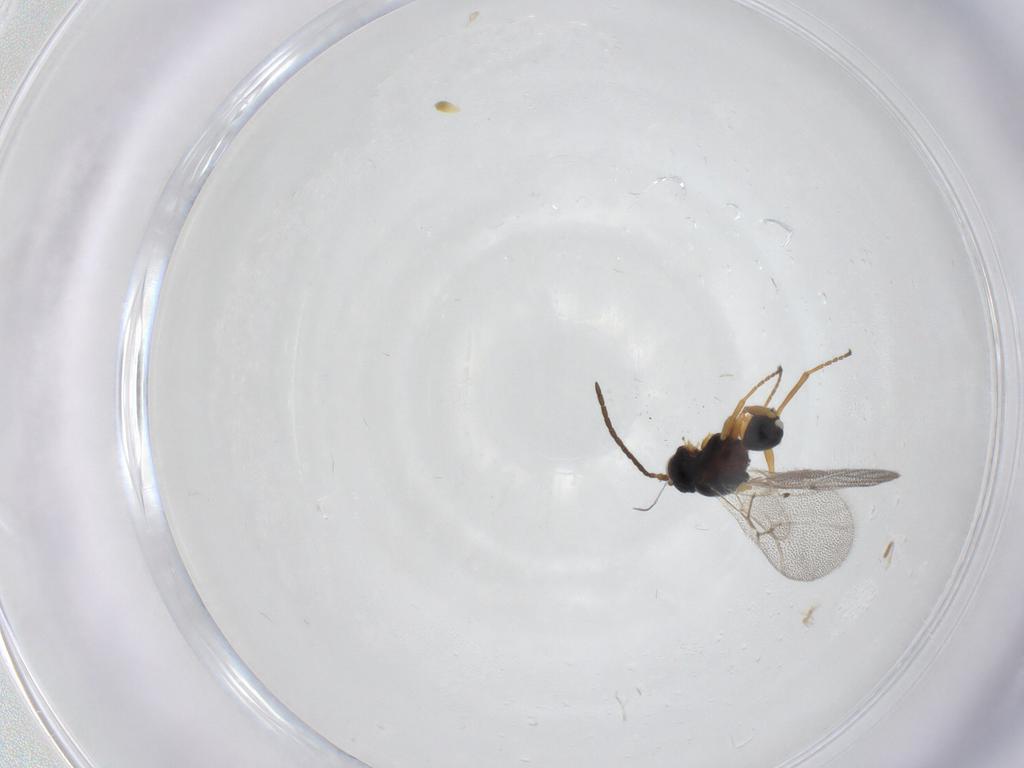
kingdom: Animalia
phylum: Arthropoda
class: Insecta
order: Hymenoptera
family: Cynipidae
